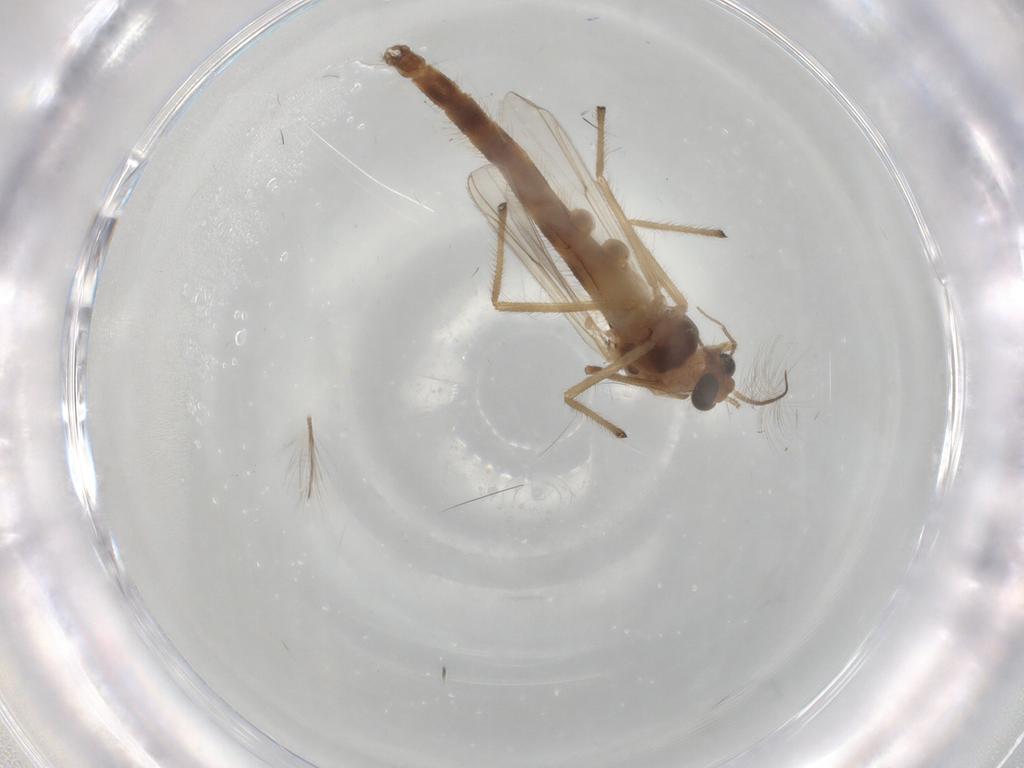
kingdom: Animalia
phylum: Arthropoda
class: Insecta
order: Diptera
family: Chironomidae
